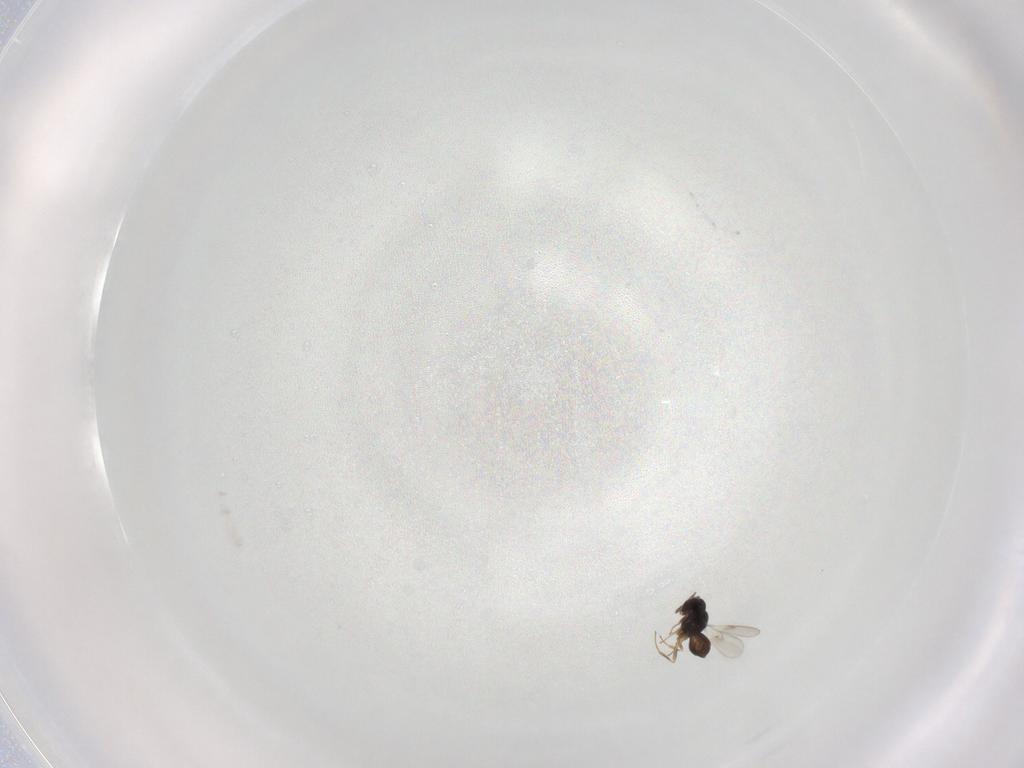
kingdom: Animalia
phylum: Arthropoda
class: Insecta
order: Hymenoptera
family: Scelionidae
